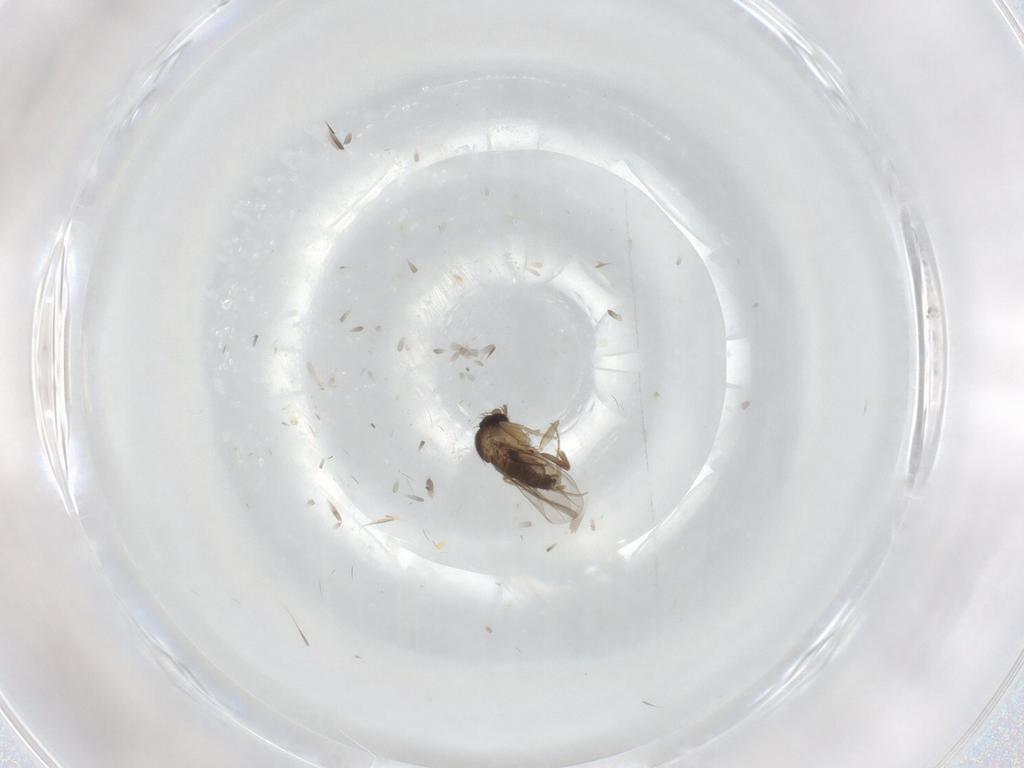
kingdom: Animalia
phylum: Arthropoda
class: Insecta
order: Diptera
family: Phoridae
